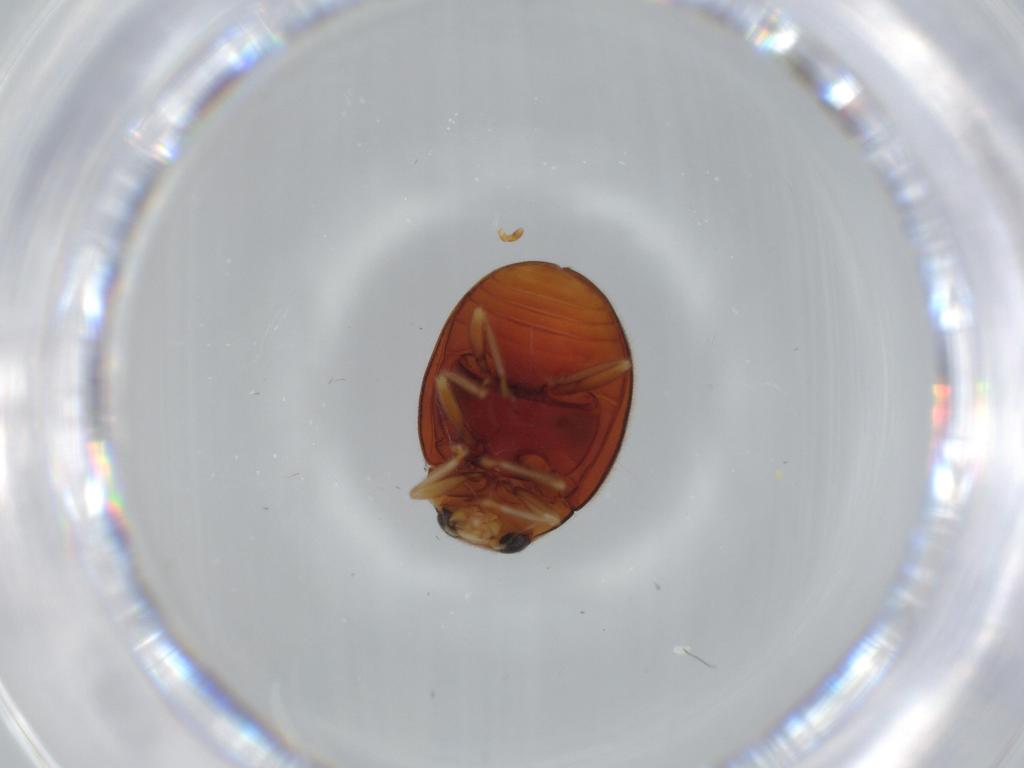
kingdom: Animalia
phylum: Arthropoda
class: Insecta
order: Coleoptera
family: Coccinellidae
